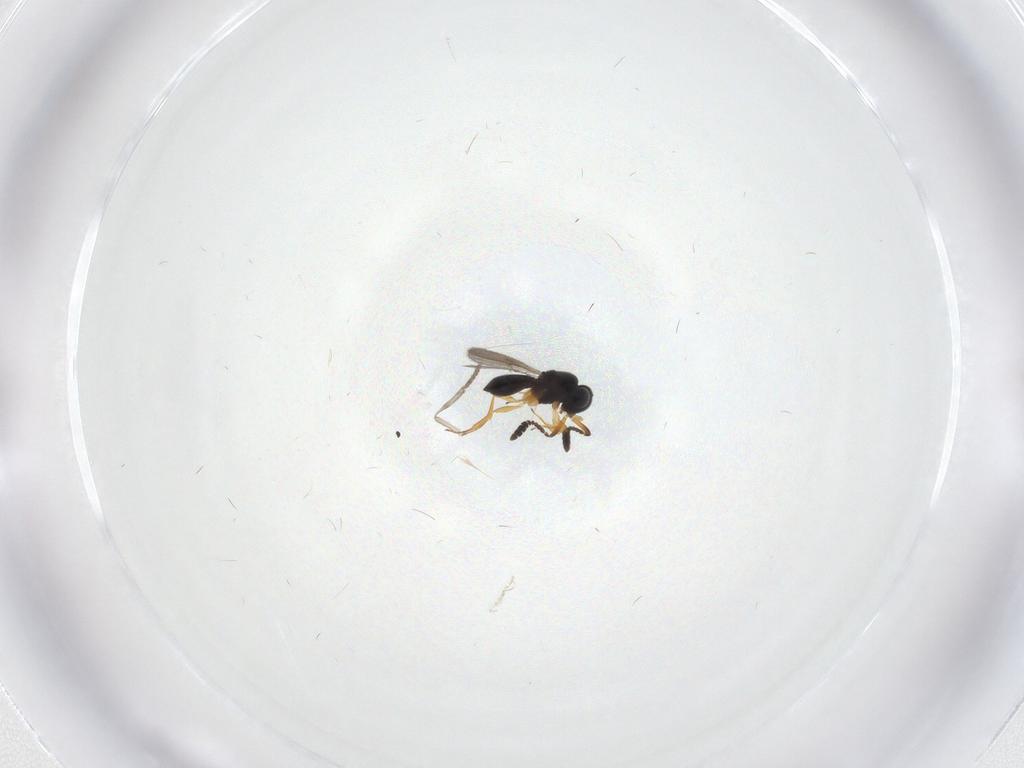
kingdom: Animalia
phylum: Arthropoda
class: Insecta
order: Hymenoptera
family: Scelionidae
